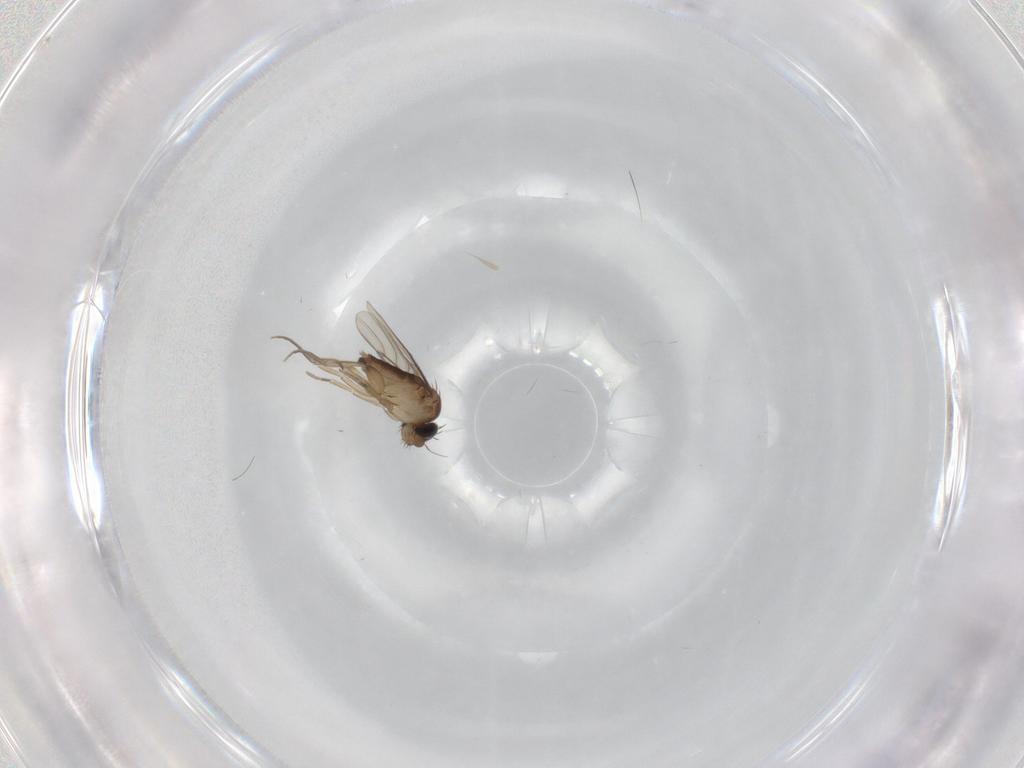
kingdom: Animalia
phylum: Arthropoda
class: Insecta
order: Diptera
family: Phoridae
